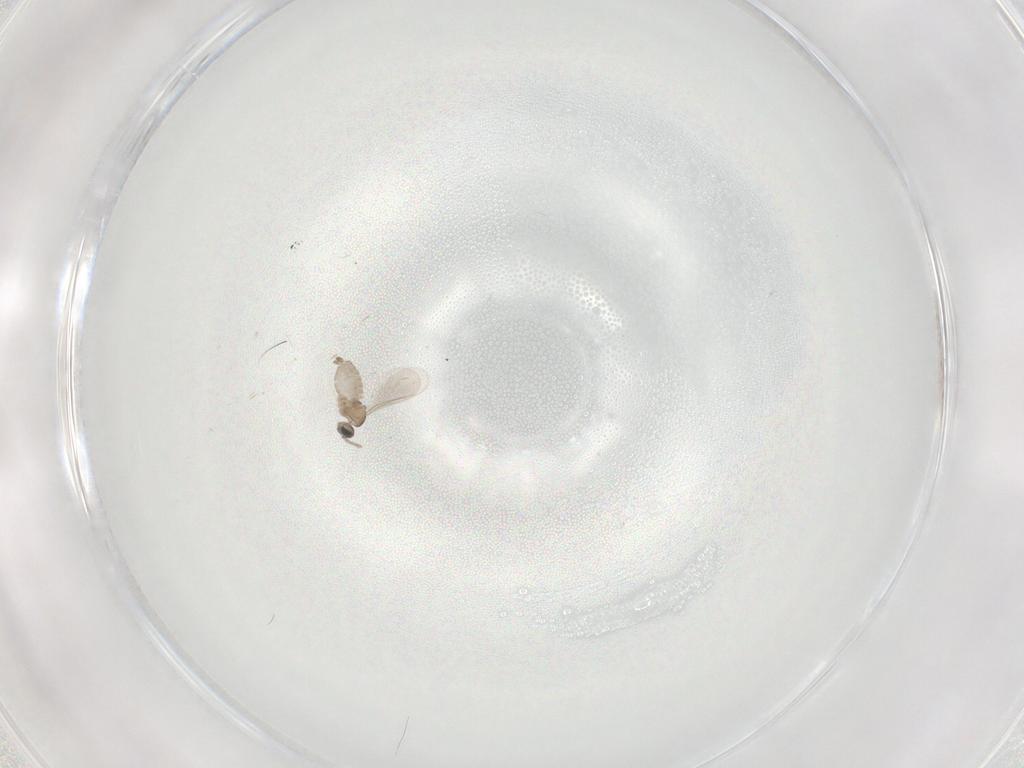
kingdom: Animalia
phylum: Arthropoda
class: Insecta
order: Diptera
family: Cecidomyiidae
